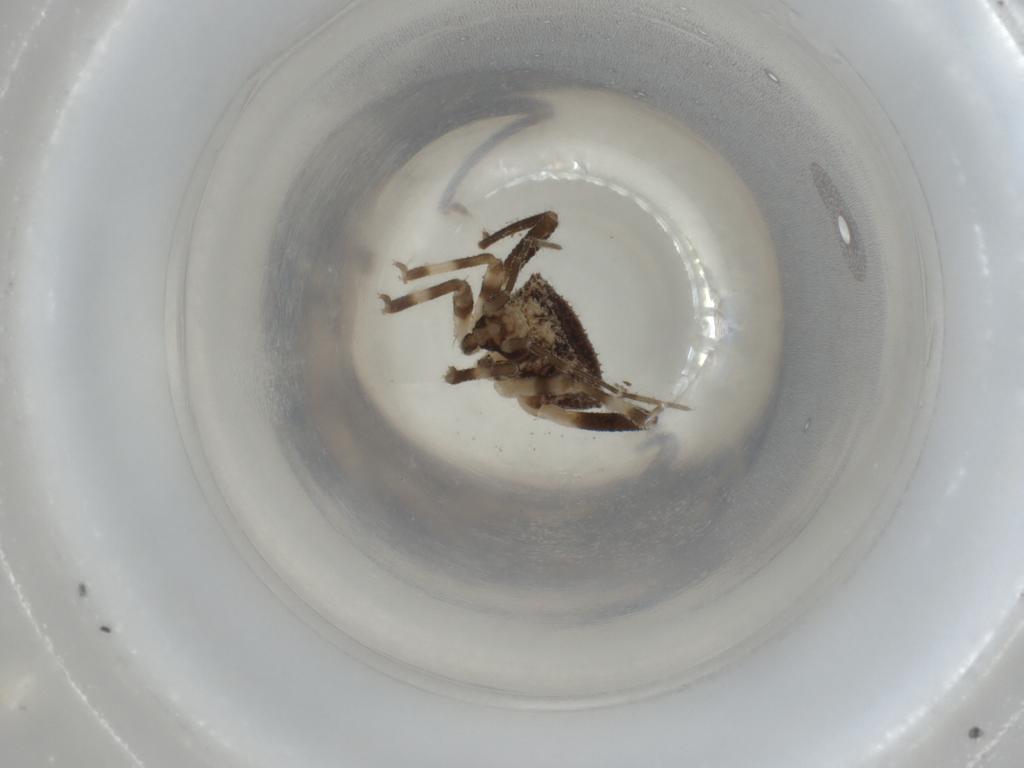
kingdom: Animalia
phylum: Arthropoda
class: Insecta
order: Hemiptera
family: Reduviidae
